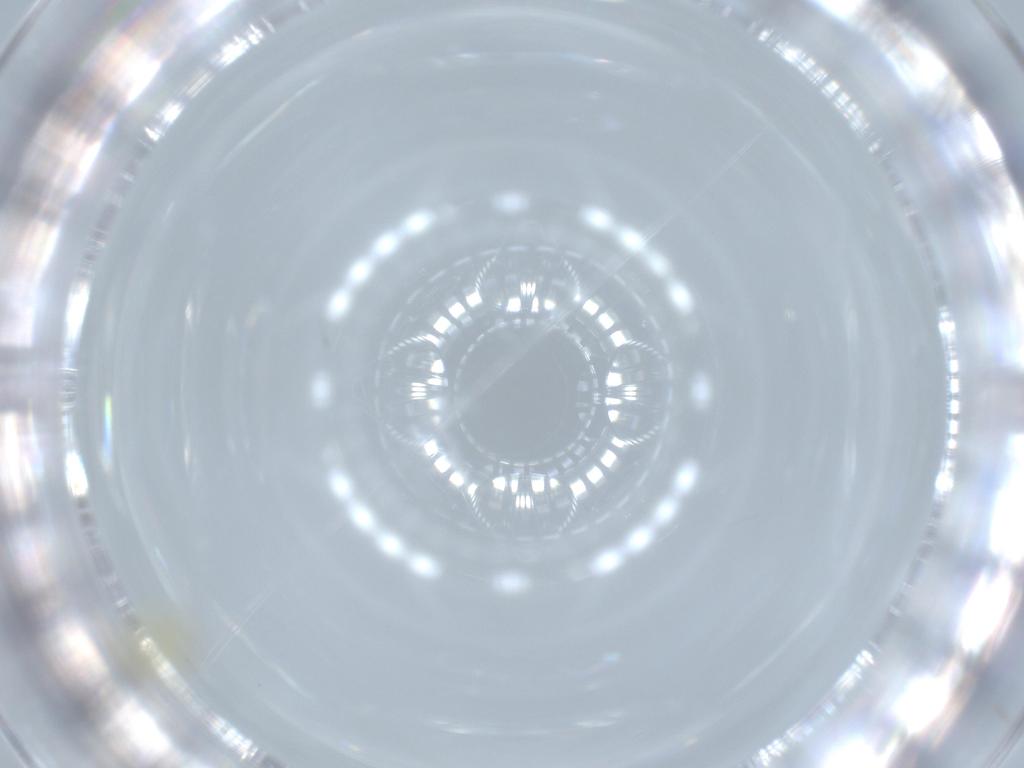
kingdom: Animalia
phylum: Arthropoda
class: Insecta
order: Hemiptera
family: Aleyrodidae
